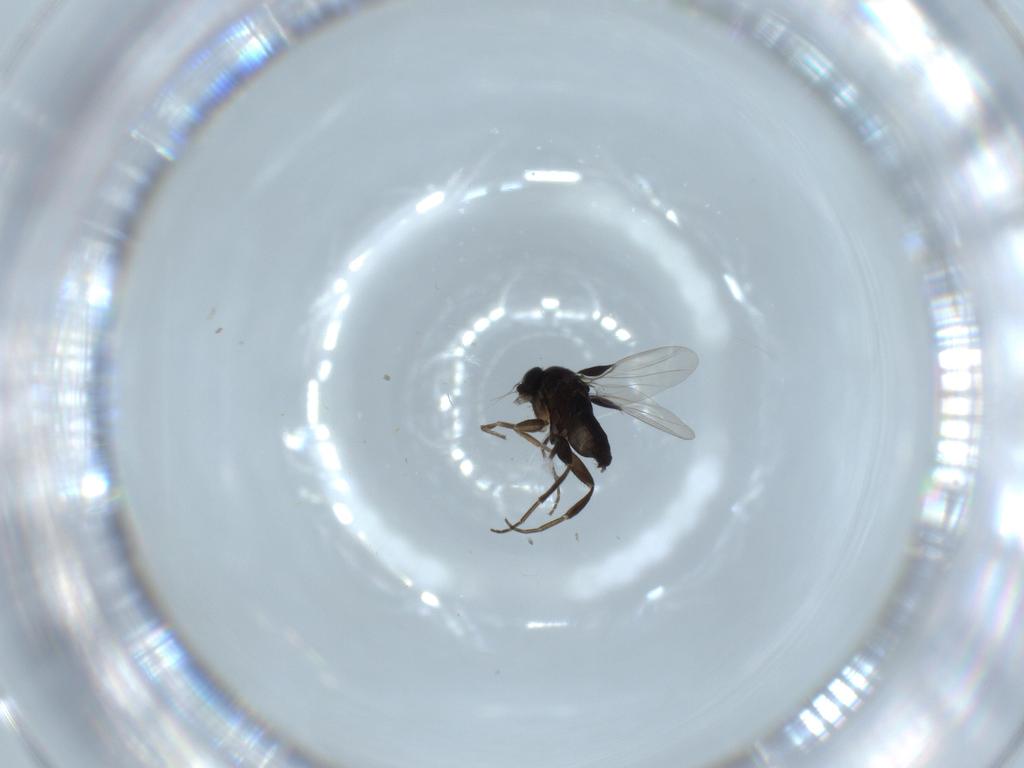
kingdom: Animalia
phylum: Arthropoda
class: Insecta
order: Diptera
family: Phoridae
